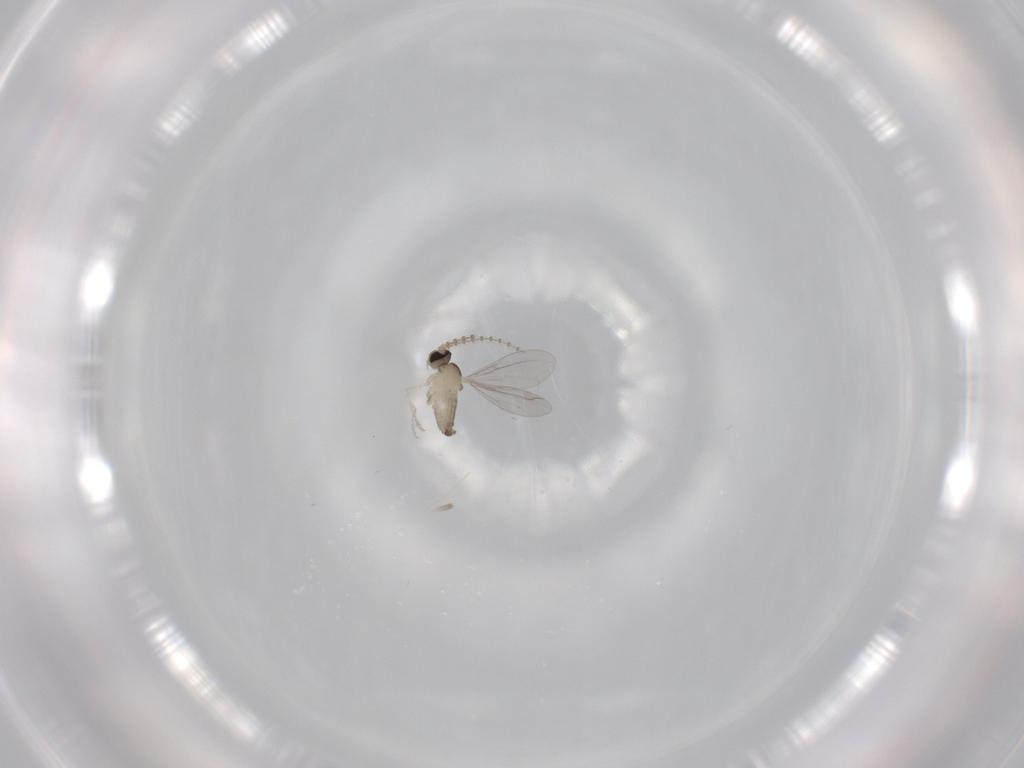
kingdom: Animalia
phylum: Arthropoda
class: Insecta
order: Diptera
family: Cecidomyiidae
